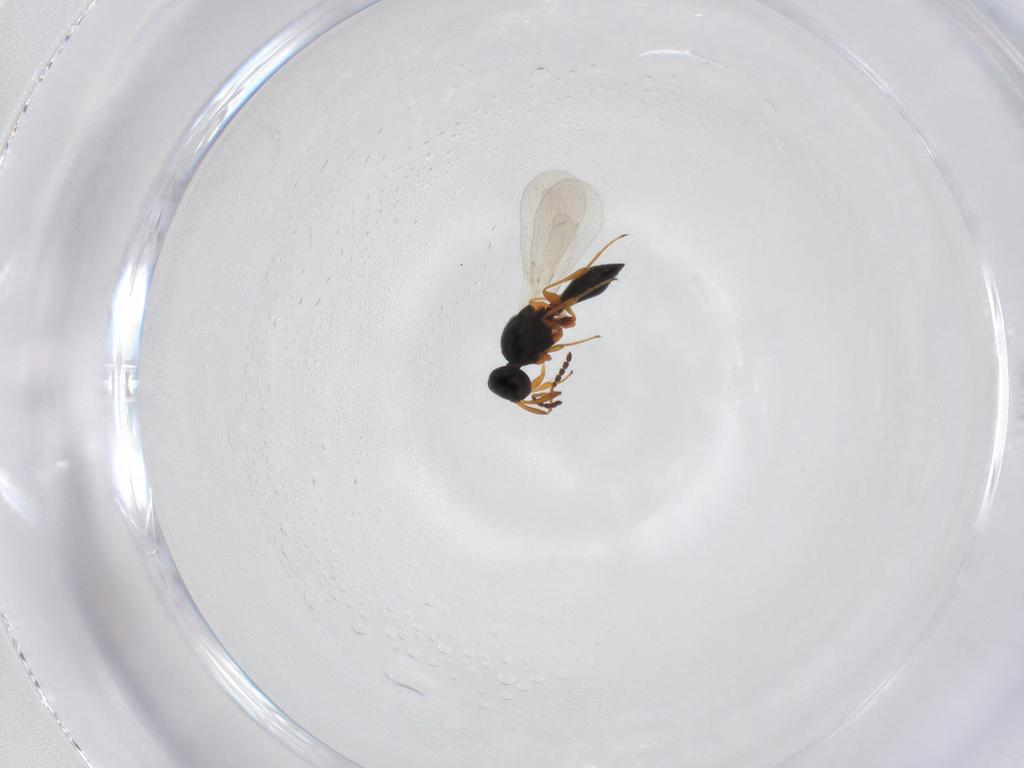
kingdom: Animalia
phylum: Arthropoda
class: Insecta
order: Hymenoptera
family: Platygastridae
